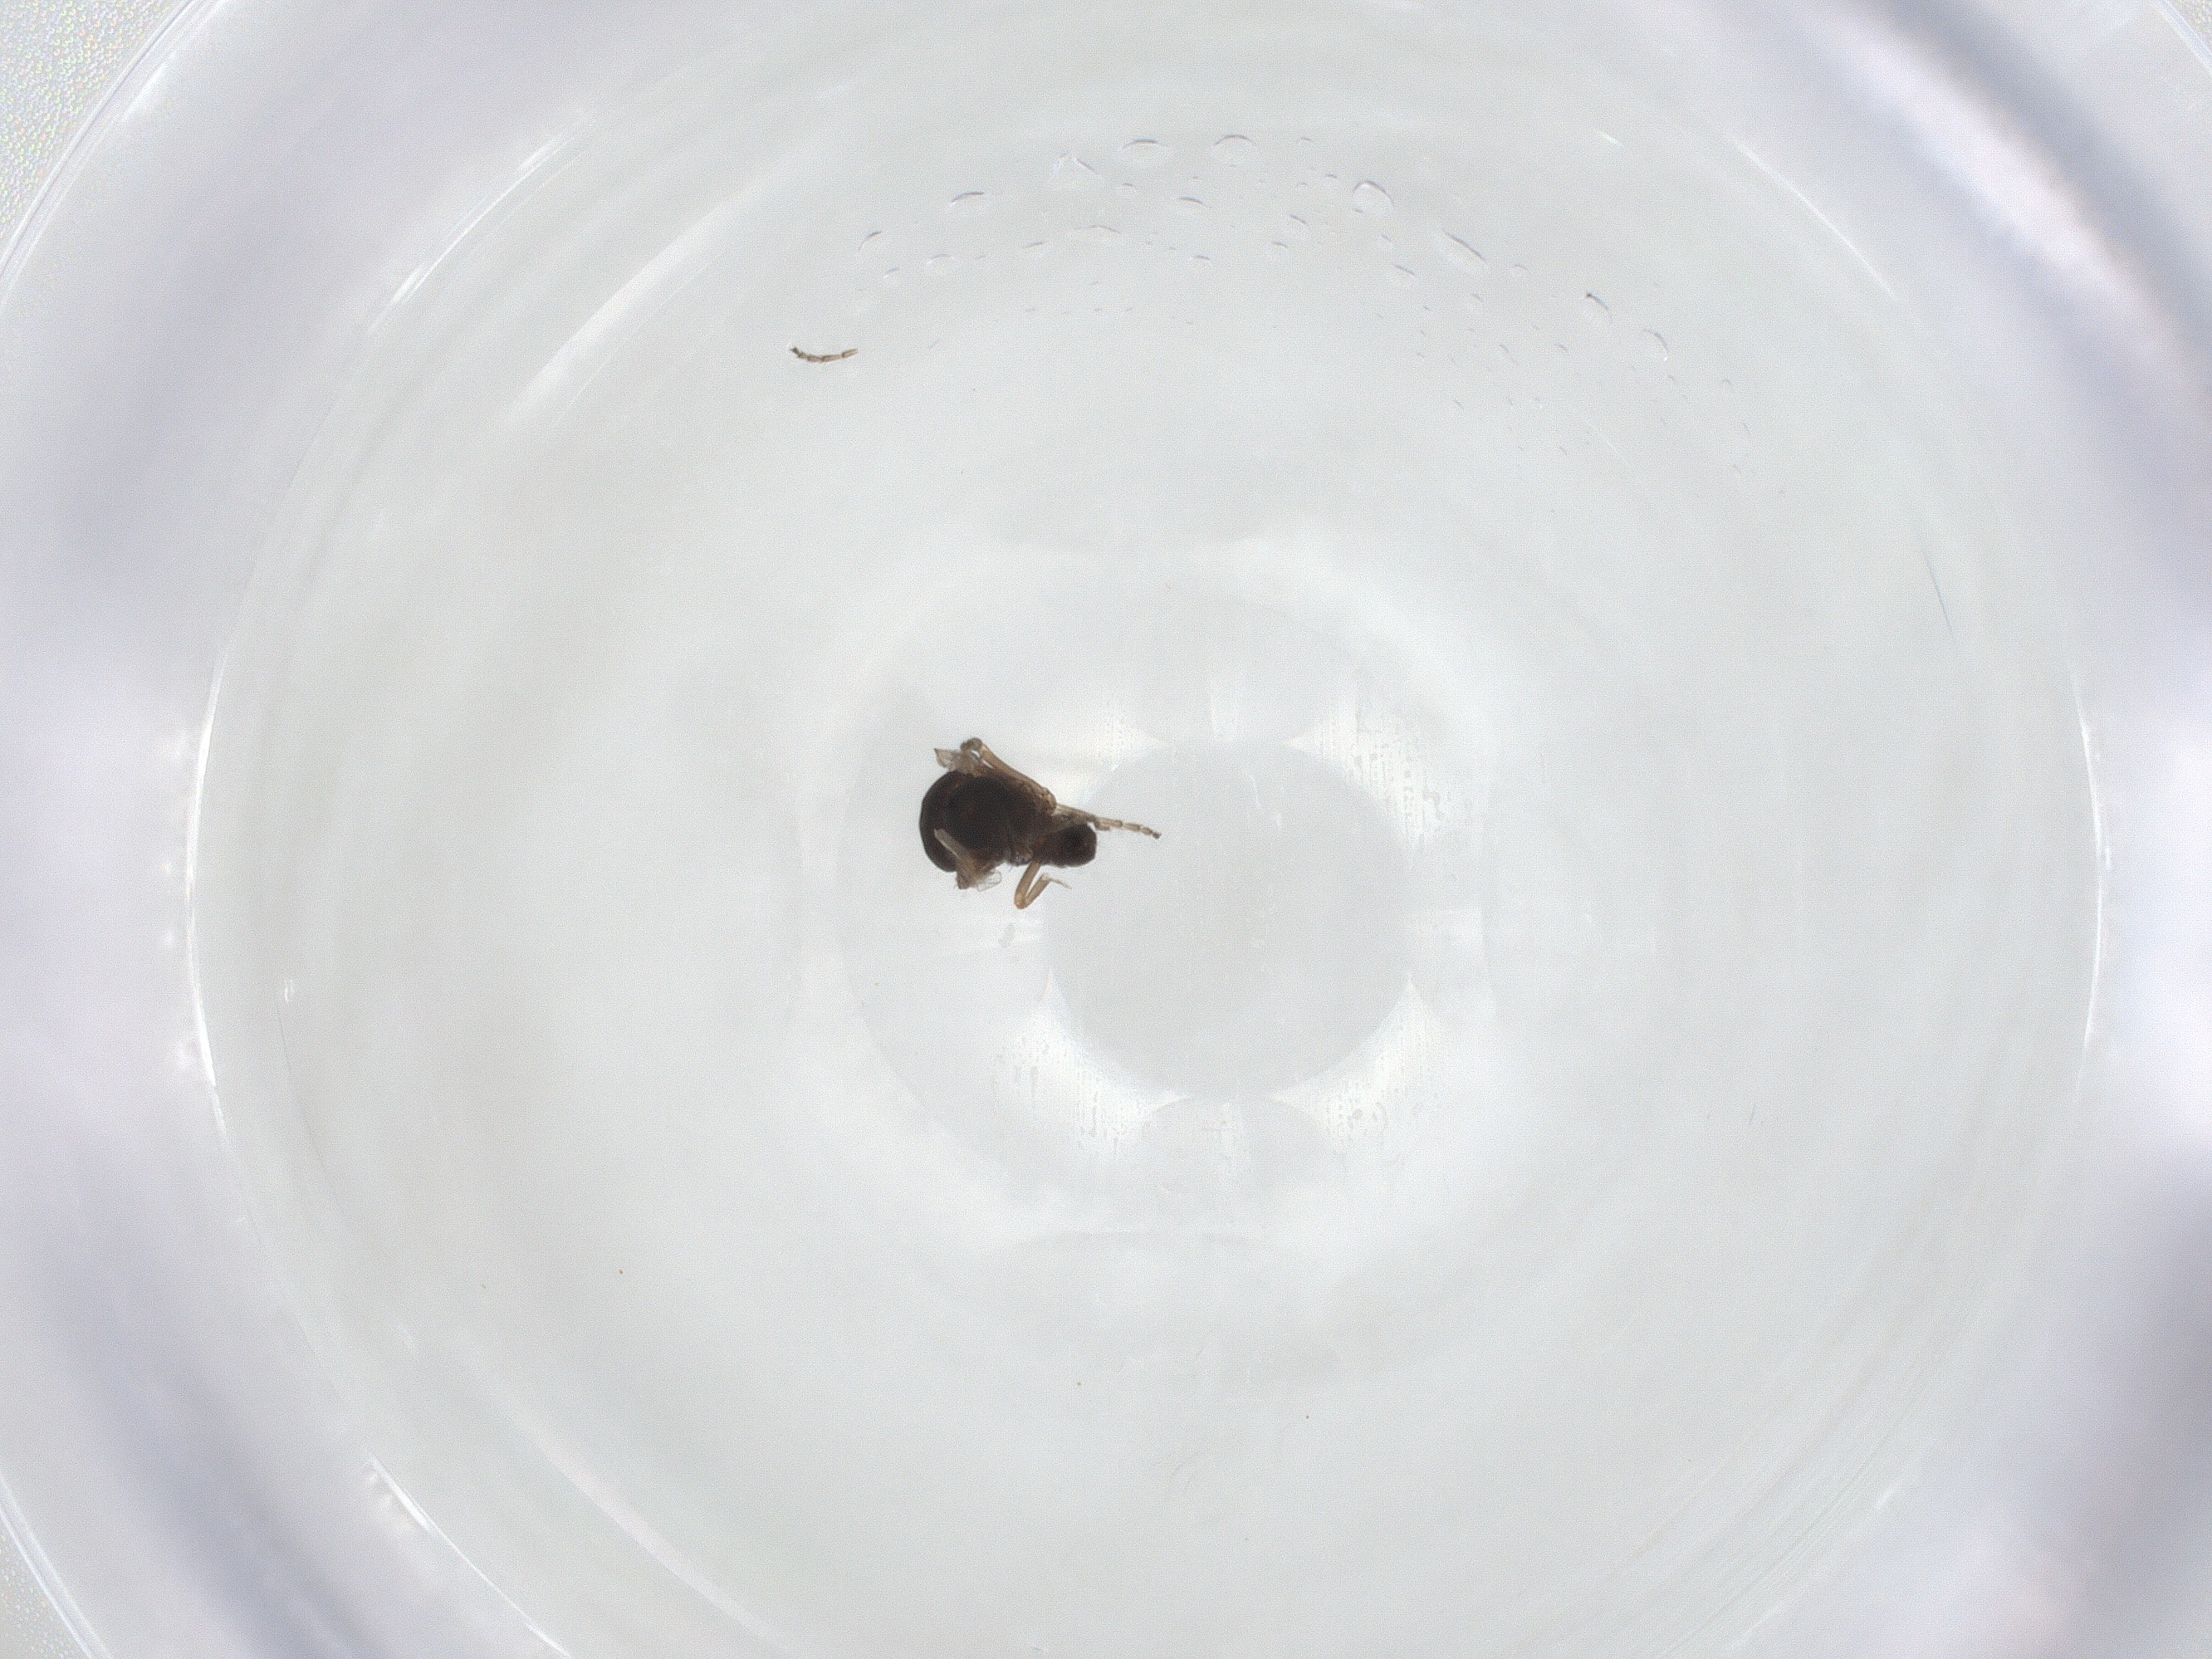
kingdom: Animalia
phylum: Arthropoda
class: Insecta
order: Diptera
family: Ceratopogonidae
